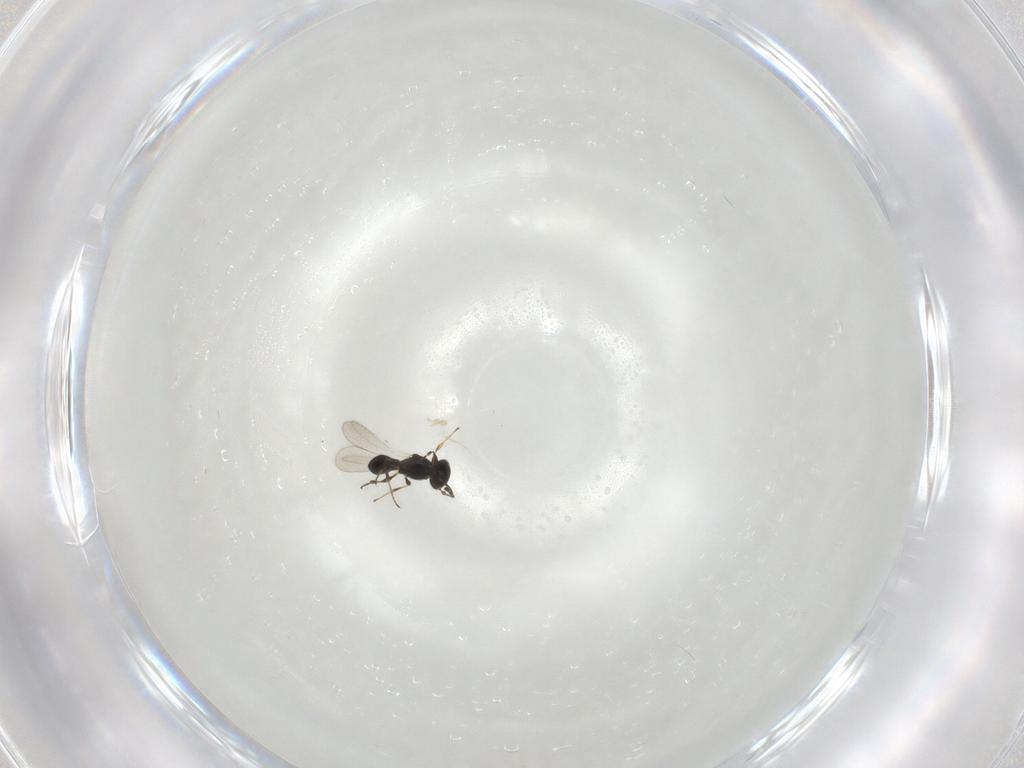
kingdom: Animalia
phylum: Arthropoda
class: Insecta
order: Hymenoptera
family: Platygastridae
